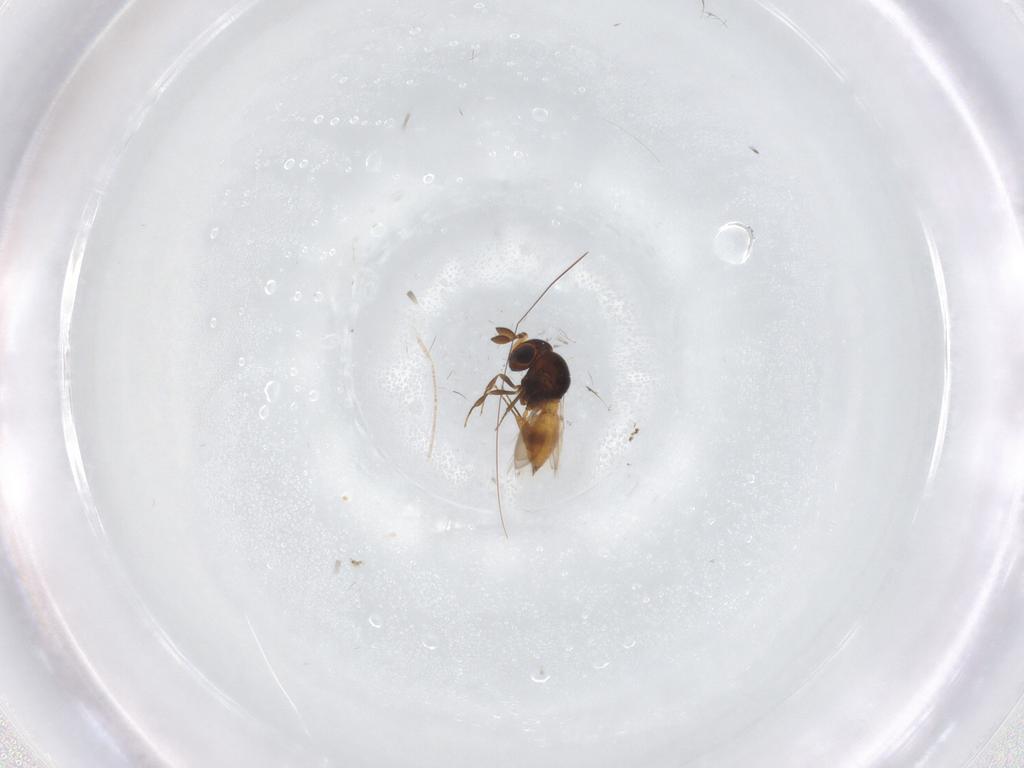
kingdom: Animalia
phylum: Arthropoda
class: Insecta
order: Hymenoptera
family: Scelionidae
